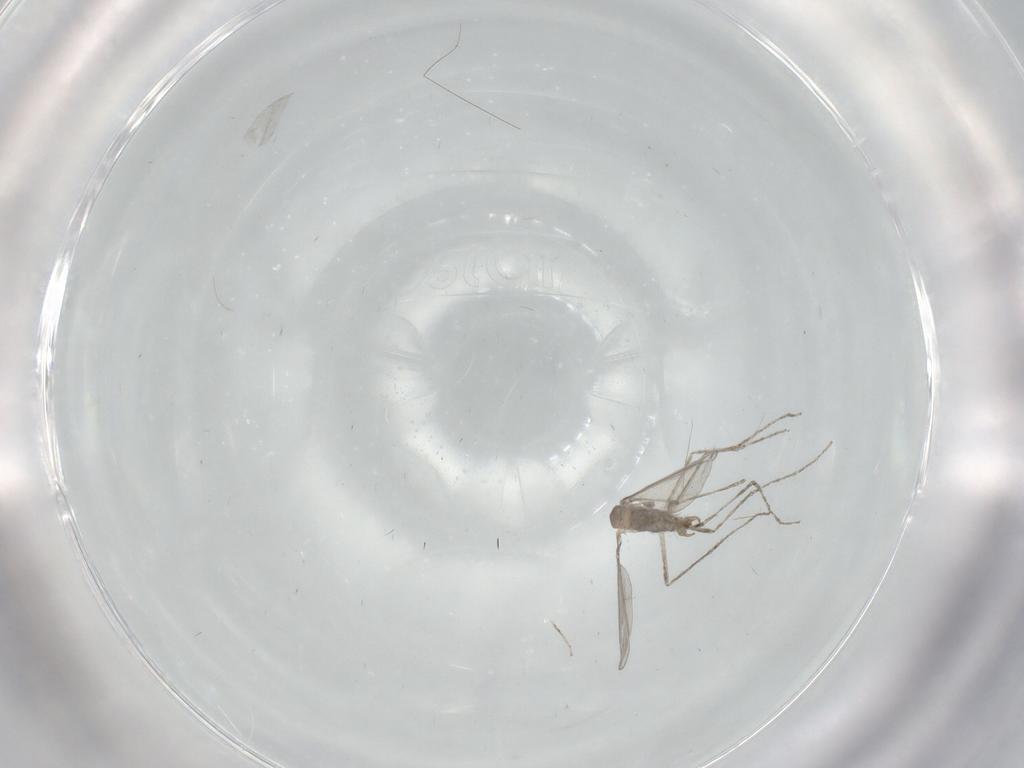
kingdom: Animalia
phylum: Arthropoda
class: Insecta
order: Diptera
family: Cecidomyiidae
